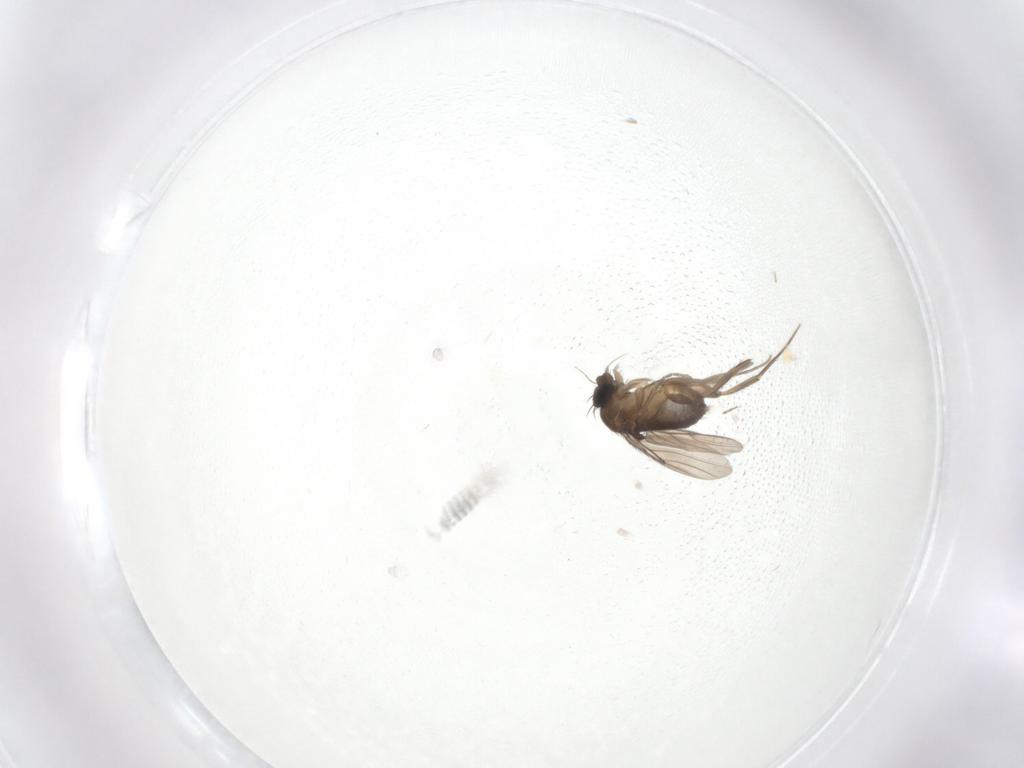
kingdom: Animalia
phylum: Arthropoda
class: Insecta
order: Diptera
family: Phoridae
